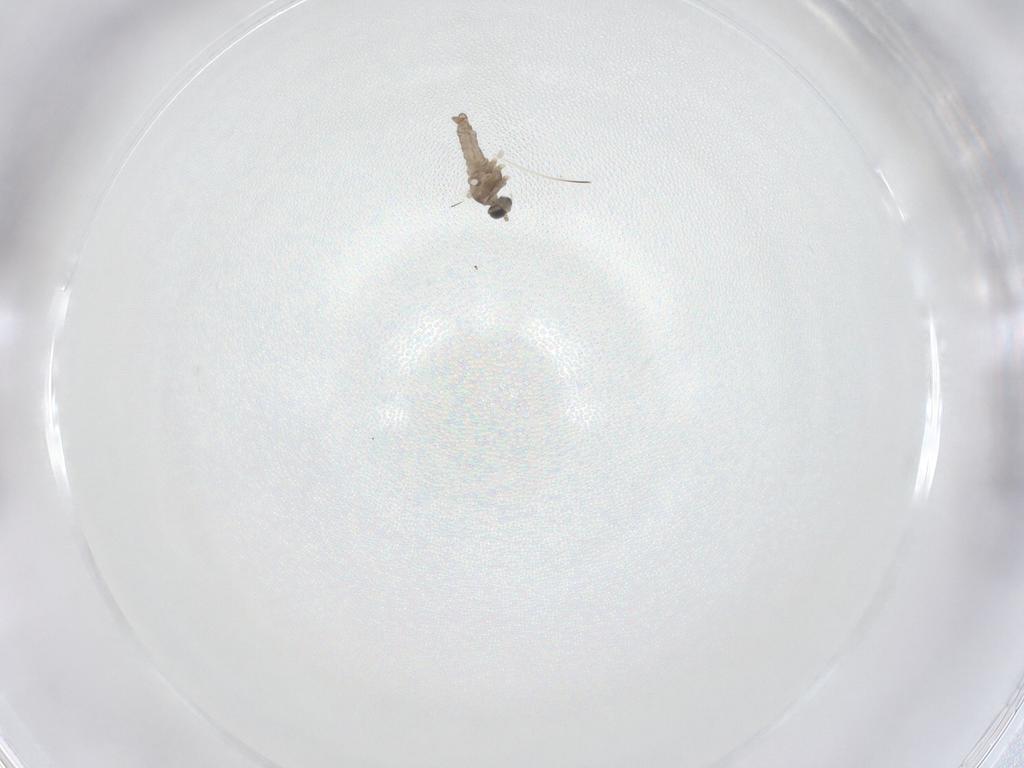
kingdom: Animalia
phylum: Arthropoda
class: Insecta
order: Diptera
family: Cecidomyiidae
